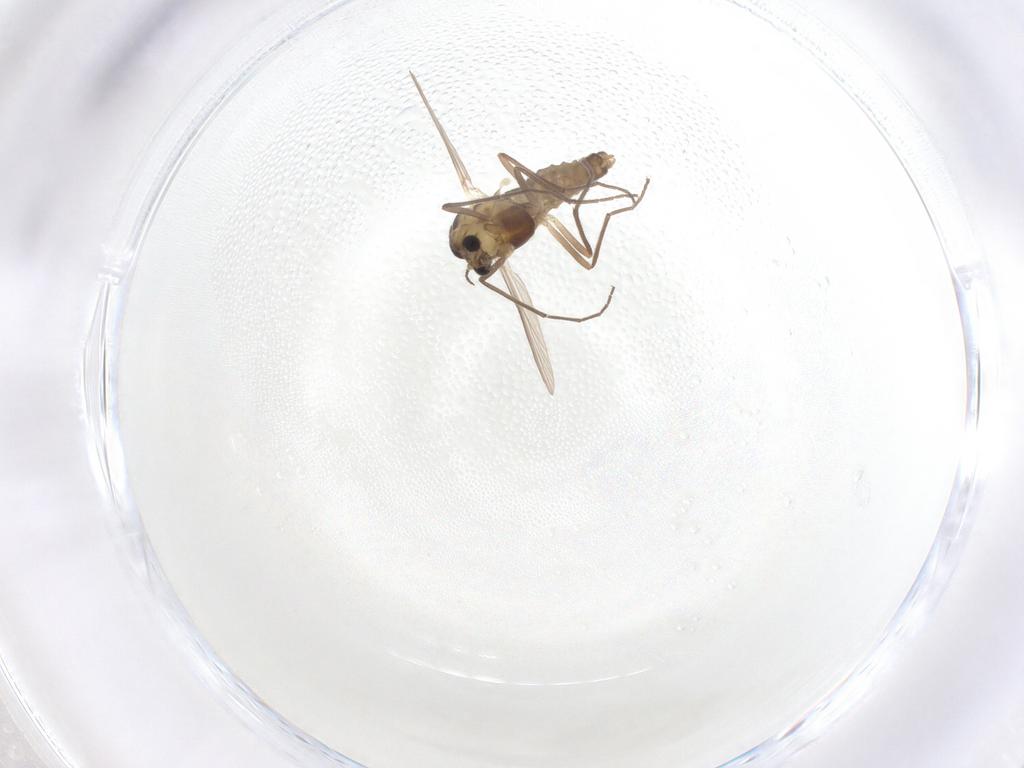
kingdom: Animalia
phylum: Arthropoda
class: Insecta
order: Diptera
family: Chironomidae
